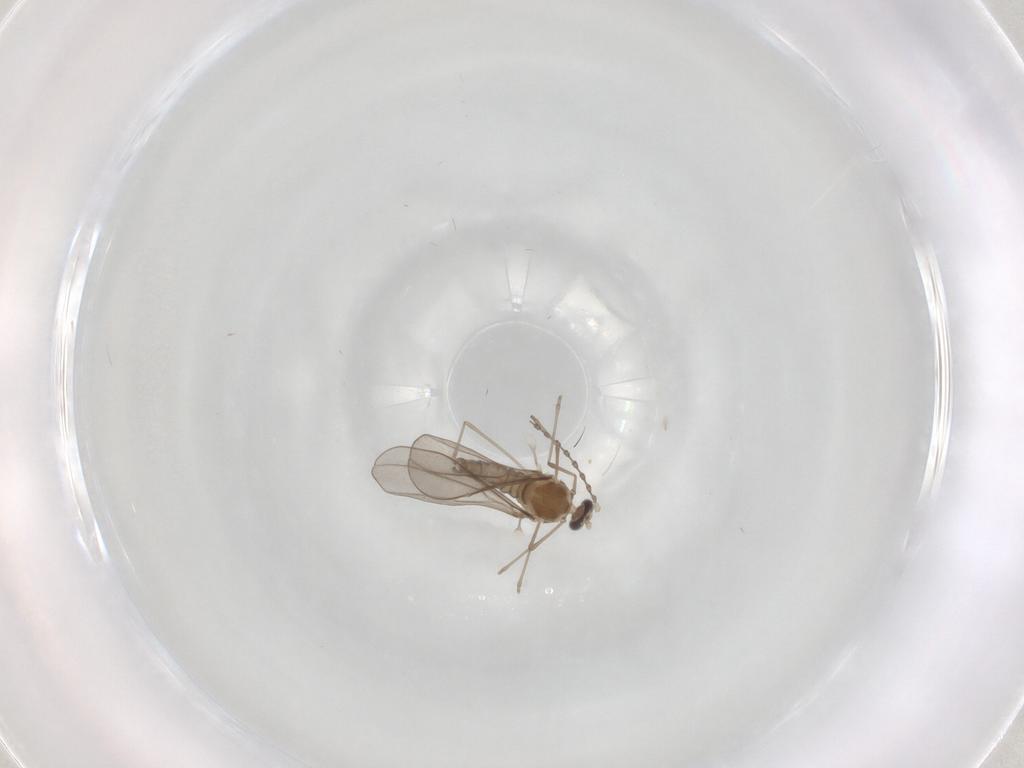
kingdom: Animalia
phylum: Arthropoda
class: Insecta
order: Diptera
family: Cecidomyiidae
